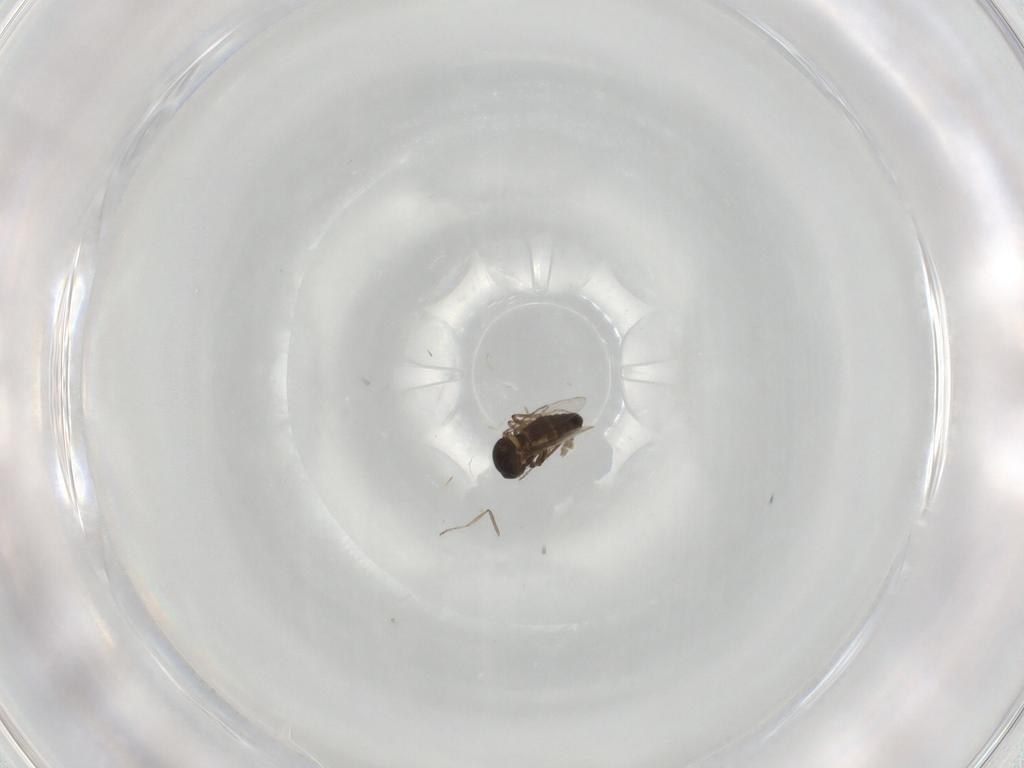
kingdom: Animalia
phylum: Arthropoda
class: Insecta
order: Diptera
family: Ceratopogonidae
